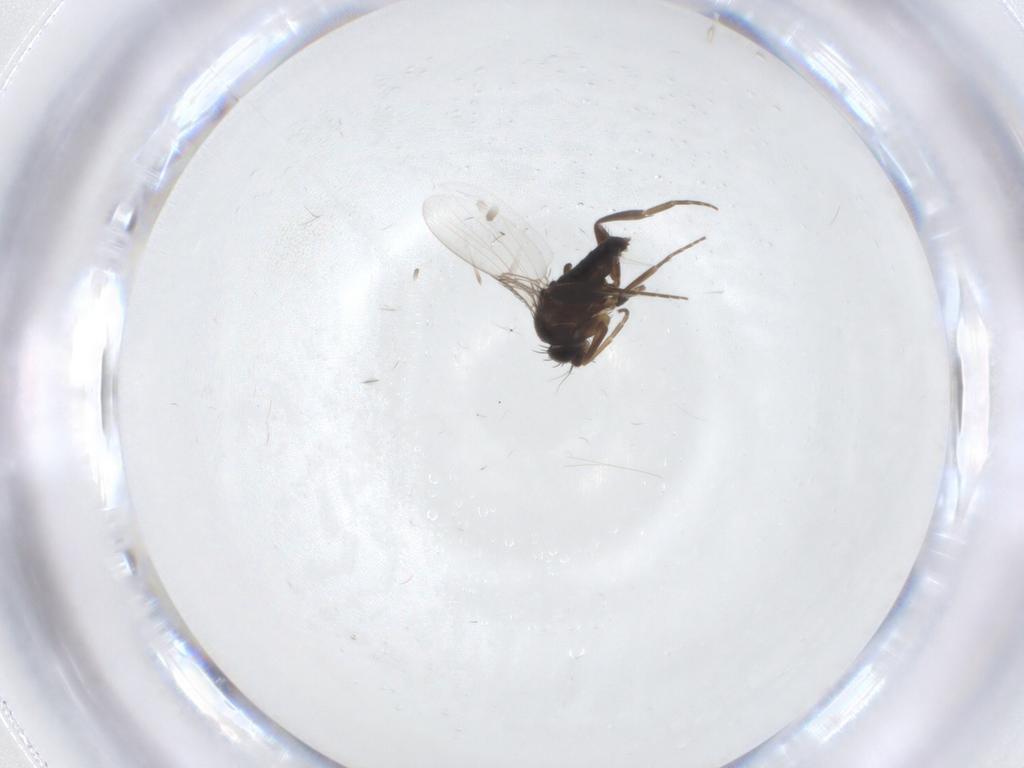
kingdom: Animalia
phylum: Arthropoda
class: Insecta
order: Diptera
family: Phoridae
